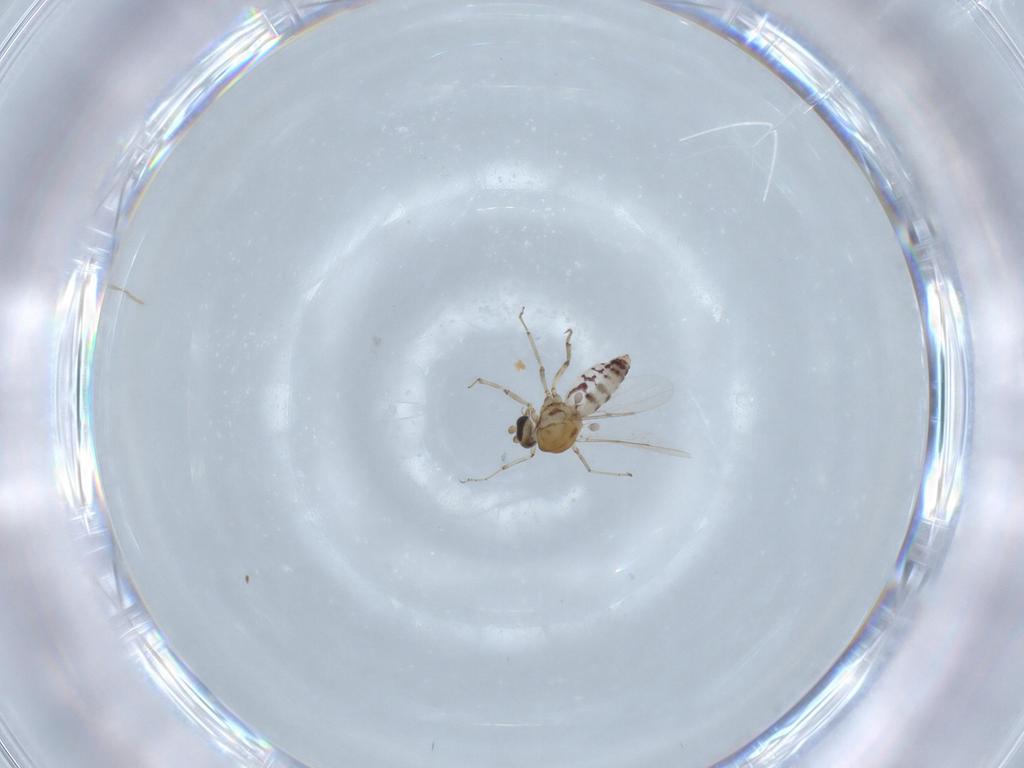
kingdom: Animalia
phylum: Arthropoda
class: Insecta
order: Diptera
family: Ceratopogonidae
